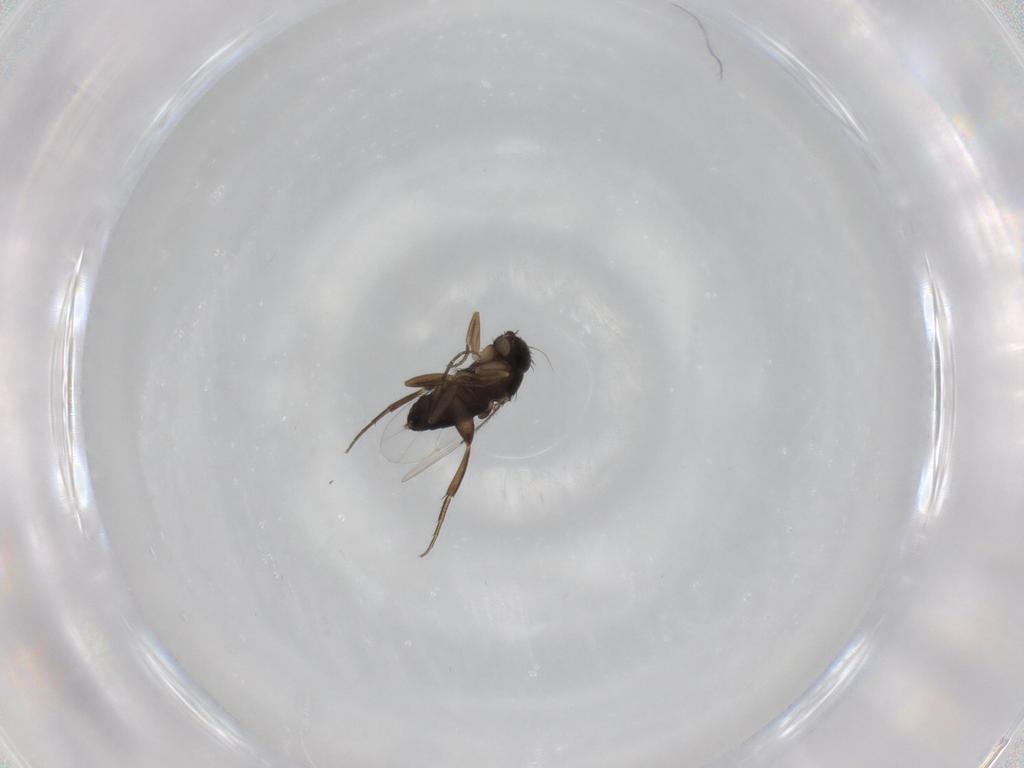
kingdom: Animalia
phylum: Arthropoda
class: Insecta
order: Diptera
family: Phoridae
